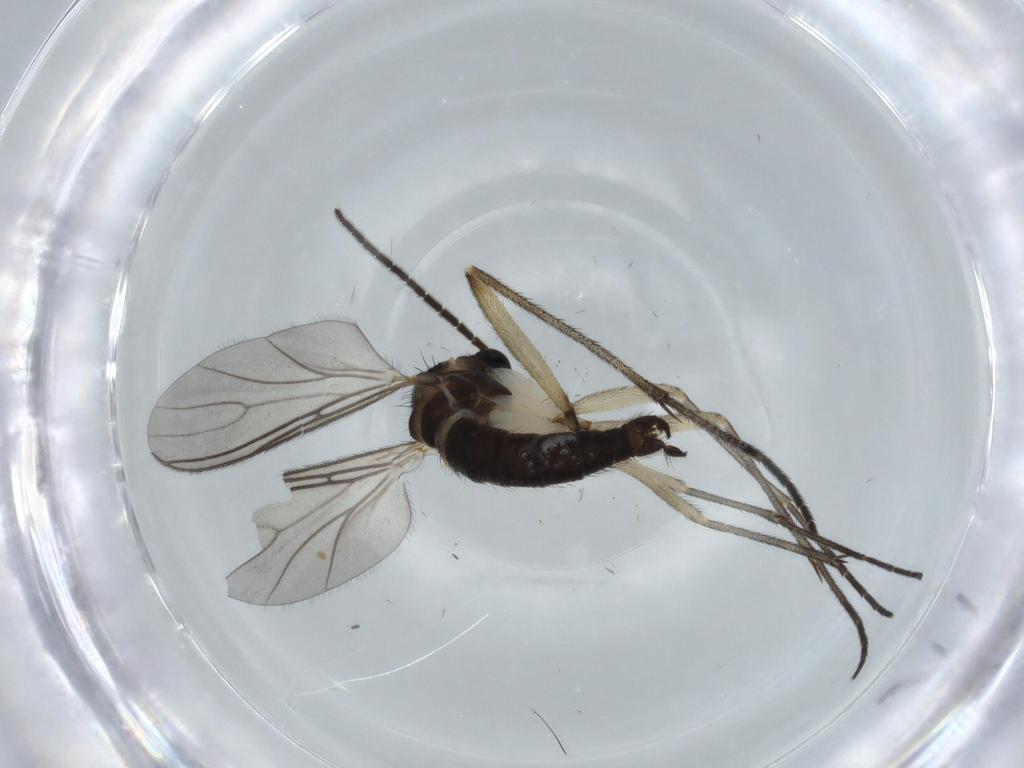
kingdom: Animalia
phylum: Arthropoda
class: Insecta
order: Diptera
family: Sciaridae
